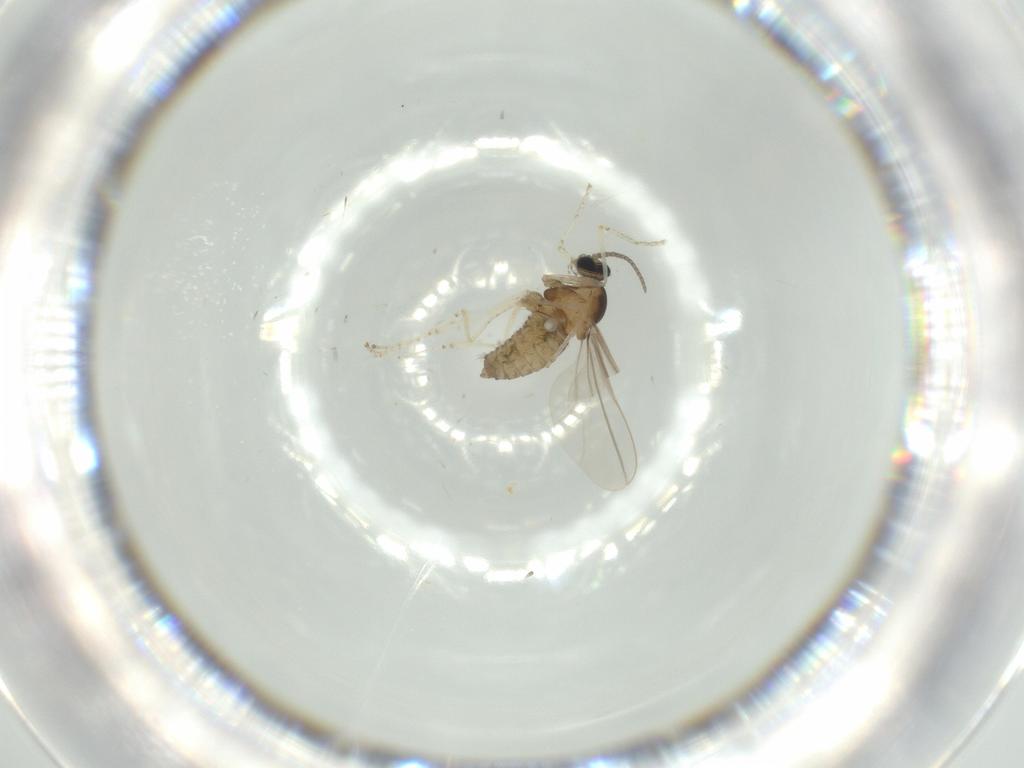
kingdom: Animalia
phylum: Arthropoda
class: Insecta
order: Diptera
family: Cecidomyiidae
